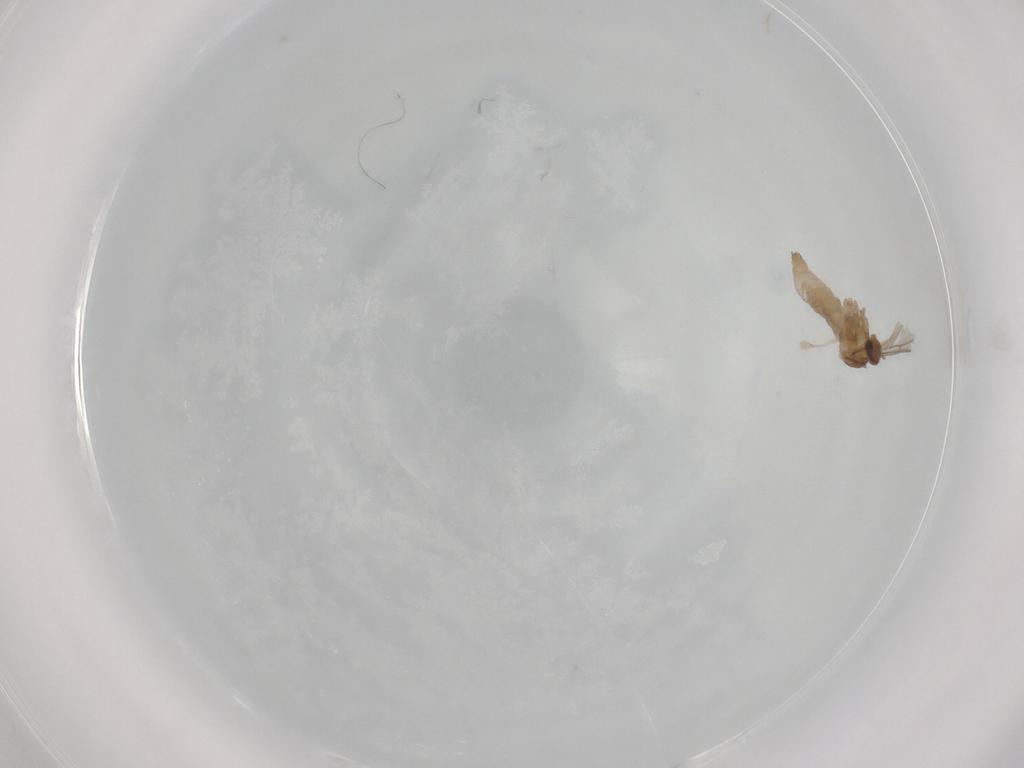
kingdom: Animalia
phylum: Arthropoda
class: Insecta
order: Diptera
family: Cecidomyiidae
